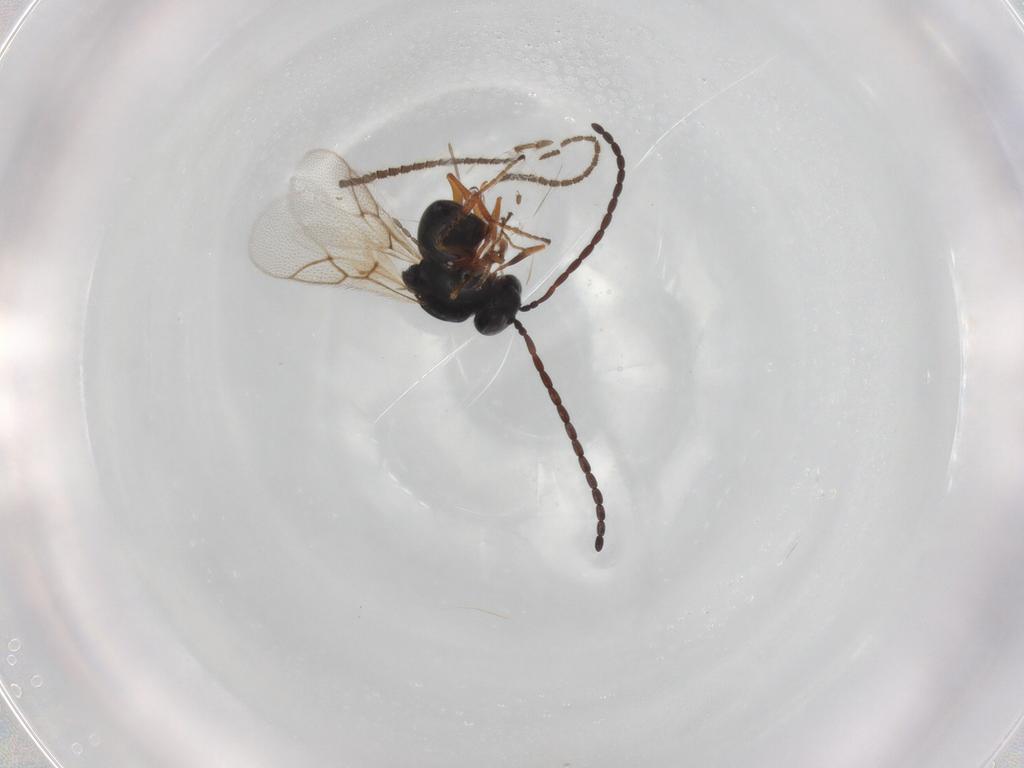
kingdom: Animalia
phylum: Arthropoda
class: Insecta
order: Hymenoptera
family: Figitidae
